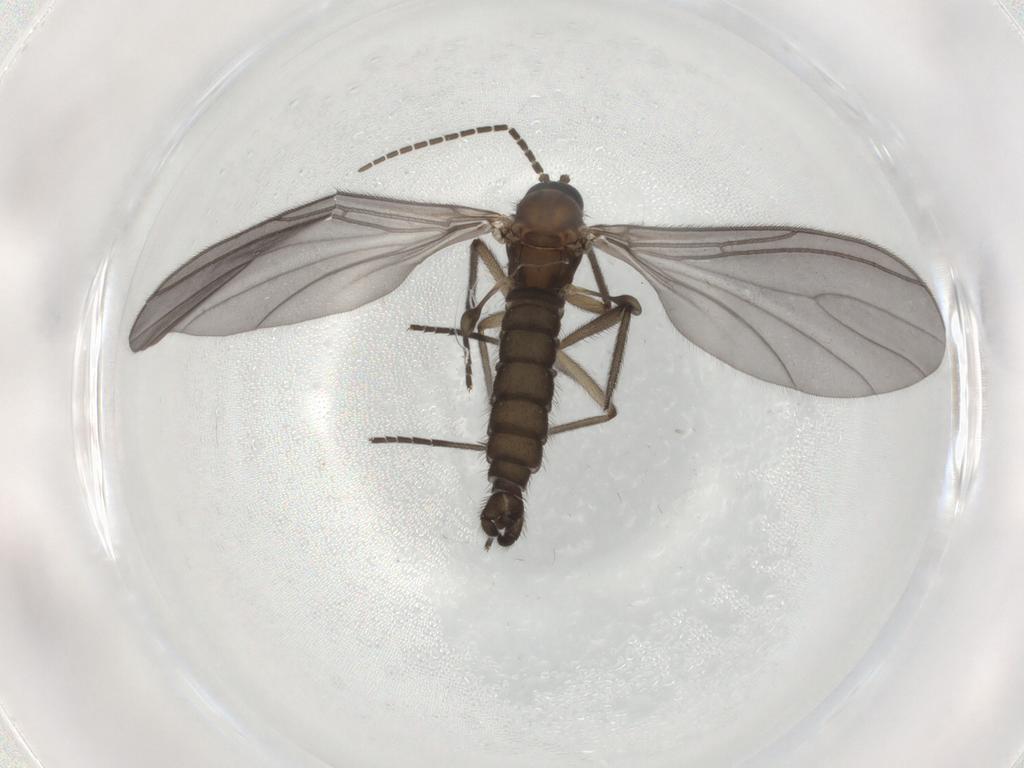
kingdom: Animalia
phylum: Arthropoda
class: Insecta
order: Diptera
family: Sciaridae
